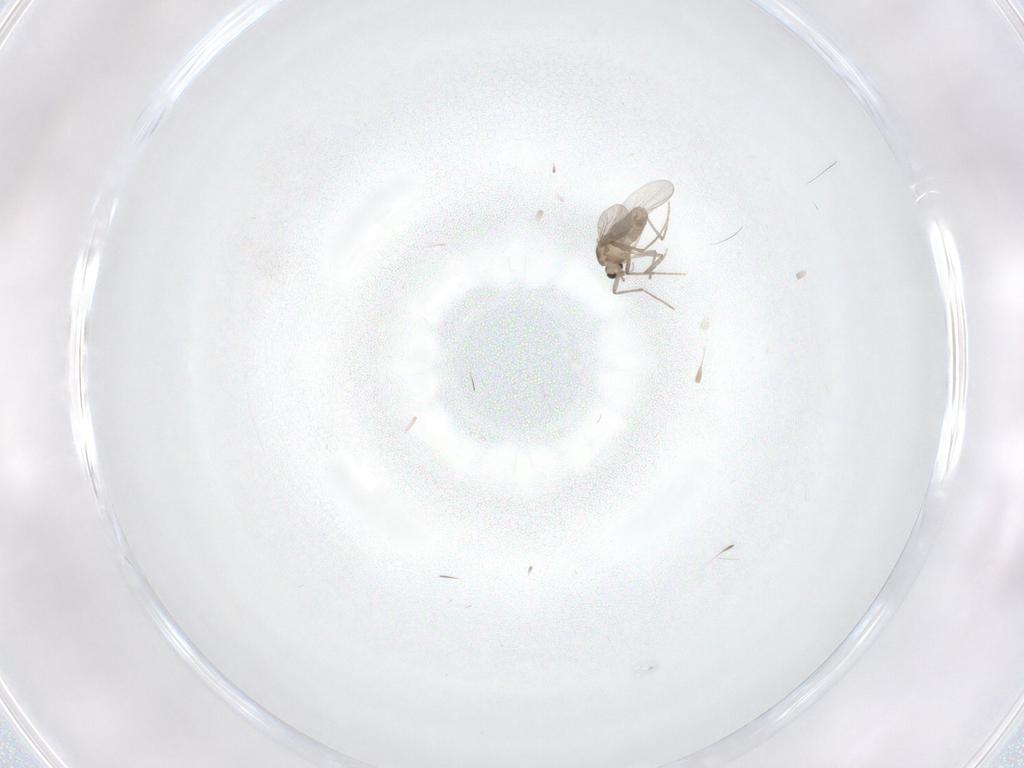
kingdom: Animalia
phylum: Arthropoda
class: Insecta
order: Diptera
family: Chironomidae
